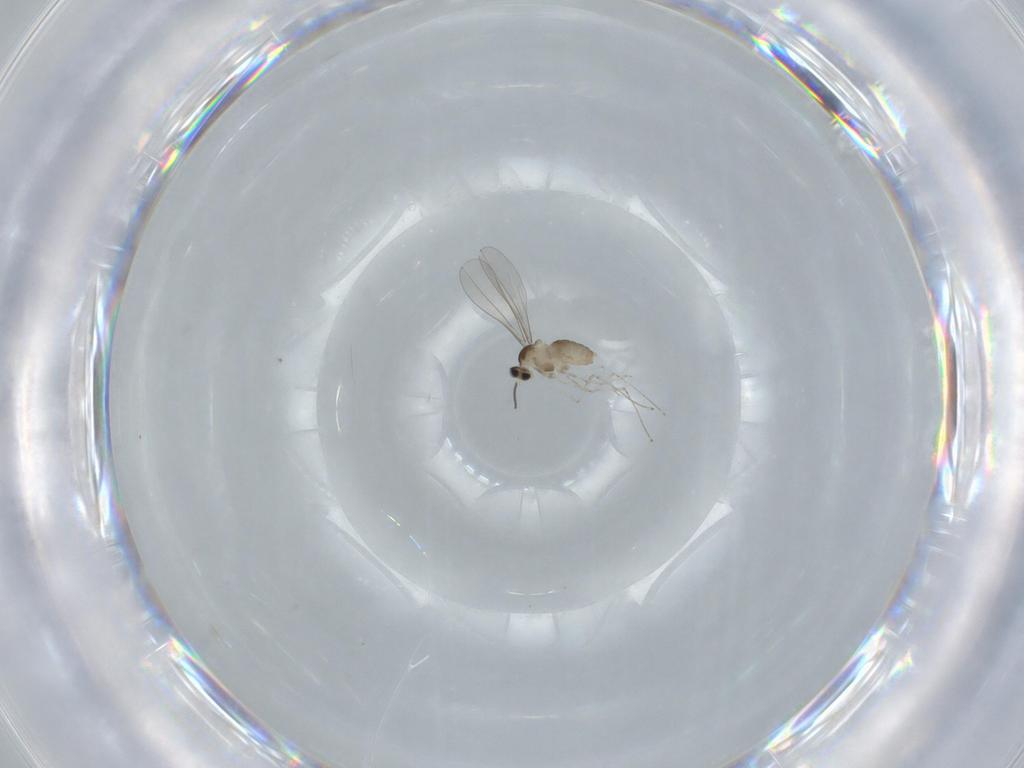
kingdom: Animalia
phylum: Arthropoda
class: Insecta
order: Diptera
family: Cecidomyiidae
